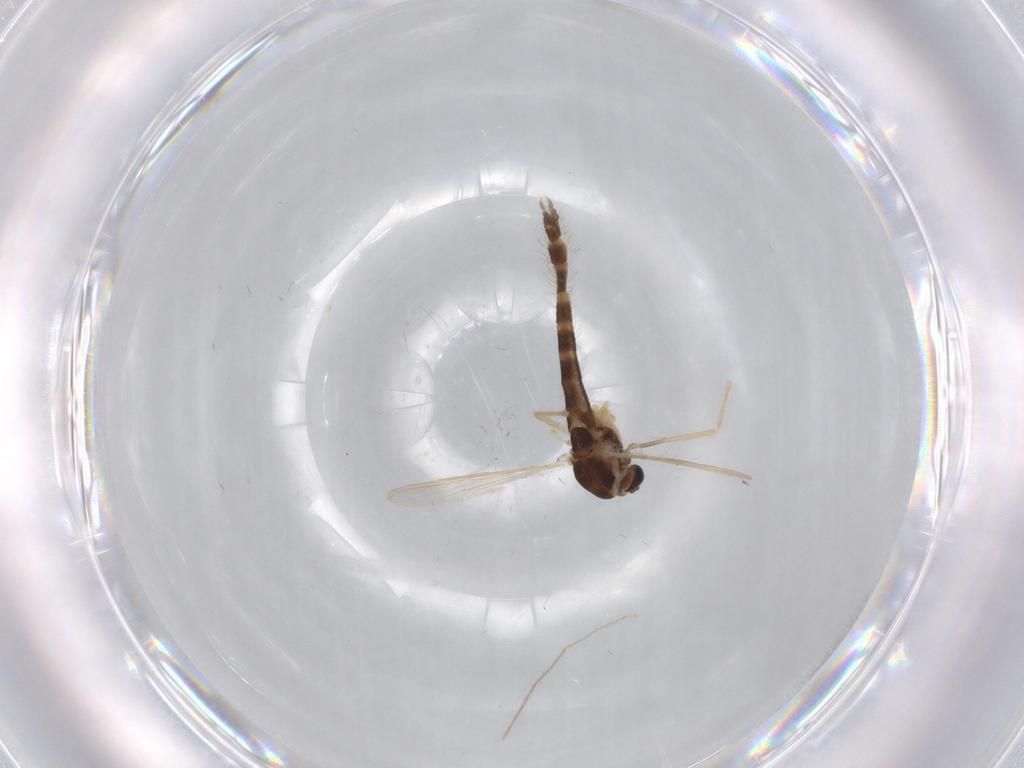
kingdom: Animalia
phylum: Arthropoda
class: Insecta
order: Diptera
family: Chironomidae
